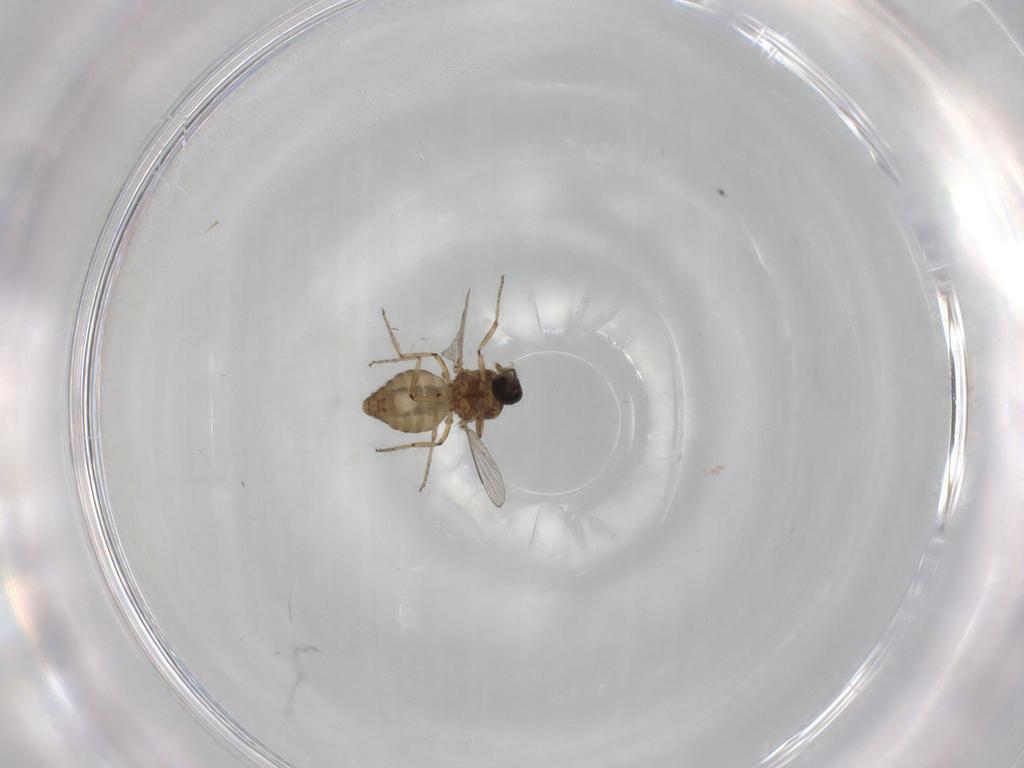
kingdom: Animalia
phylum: Arthropoda
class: Insecta
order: Diptera
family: Ceratopogonidae
